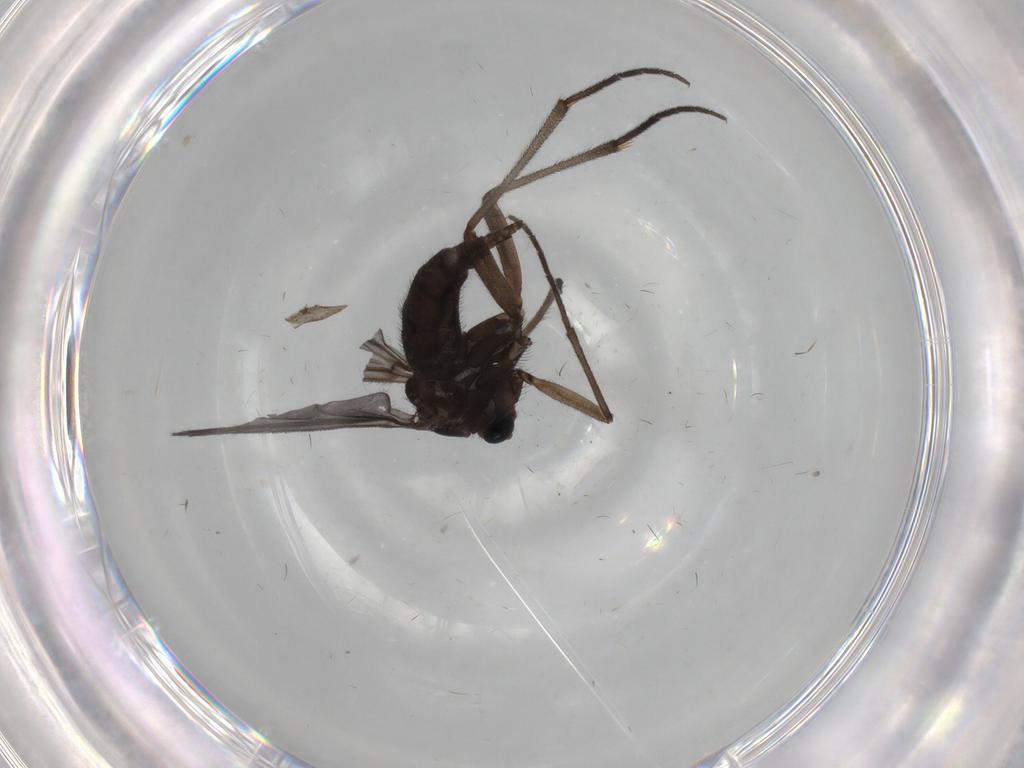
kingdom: Animalia
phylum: Arthropoda
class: Insecta
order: Diptera
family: Sciaridae
